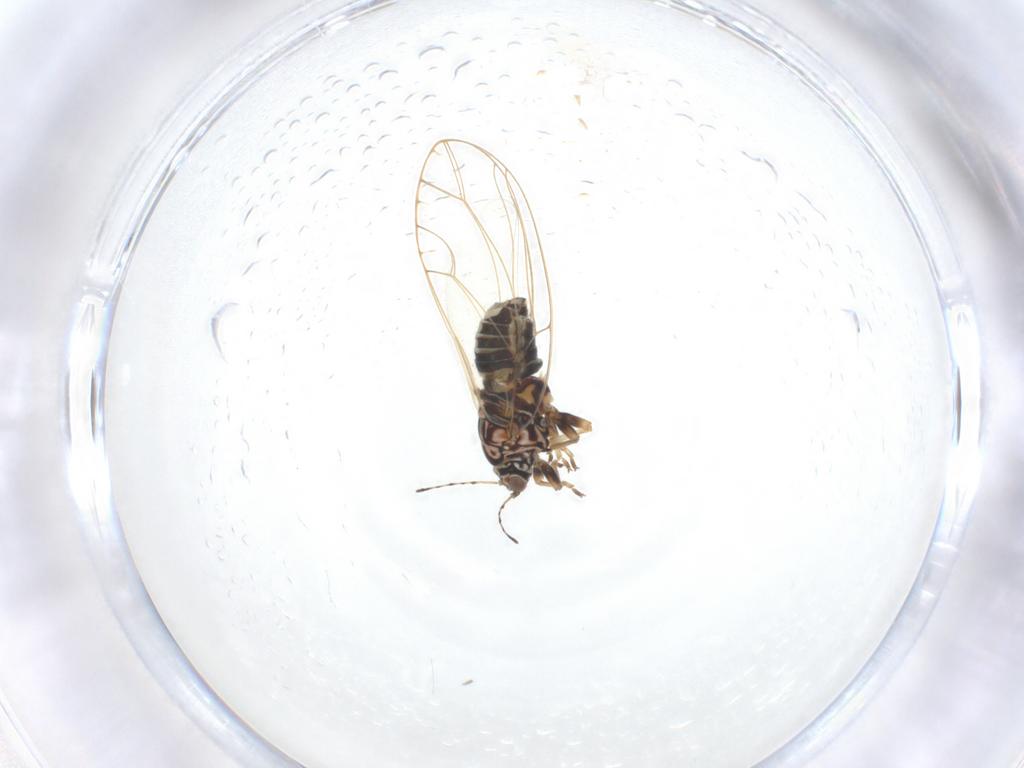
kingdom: Animalia
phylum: Arthropoda
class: Insecta
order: Hemiptera
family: Triozidae
